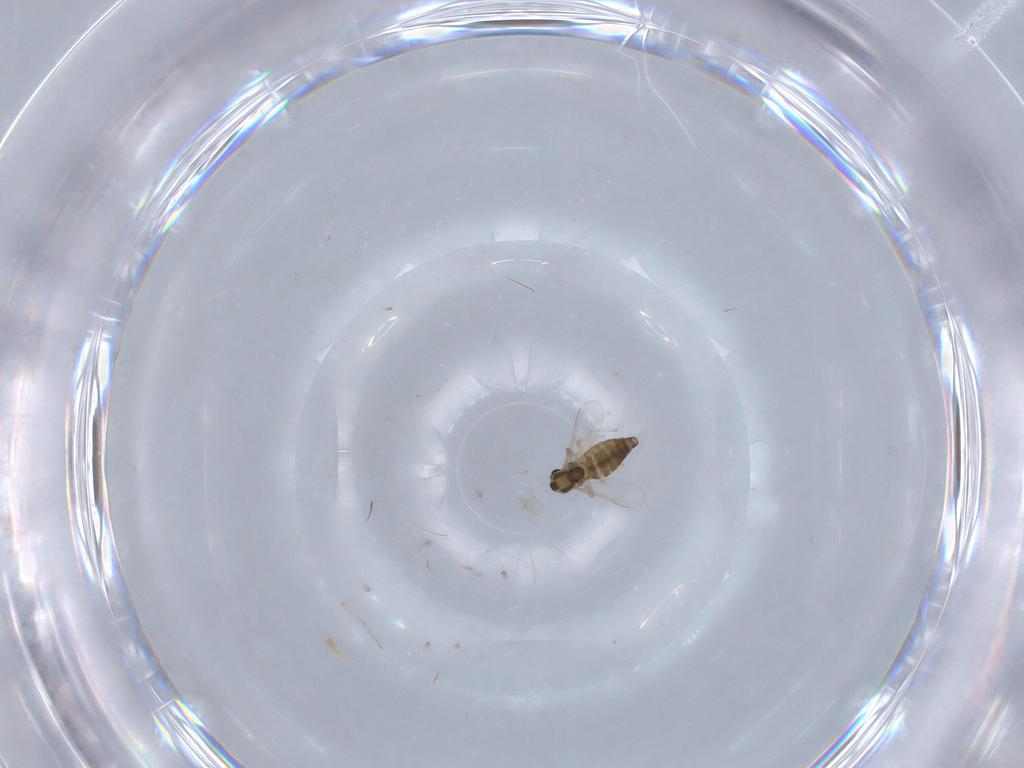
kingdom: Animalia
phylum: Arthropoda
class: Insecta
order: Diptera
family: Chironomidae
